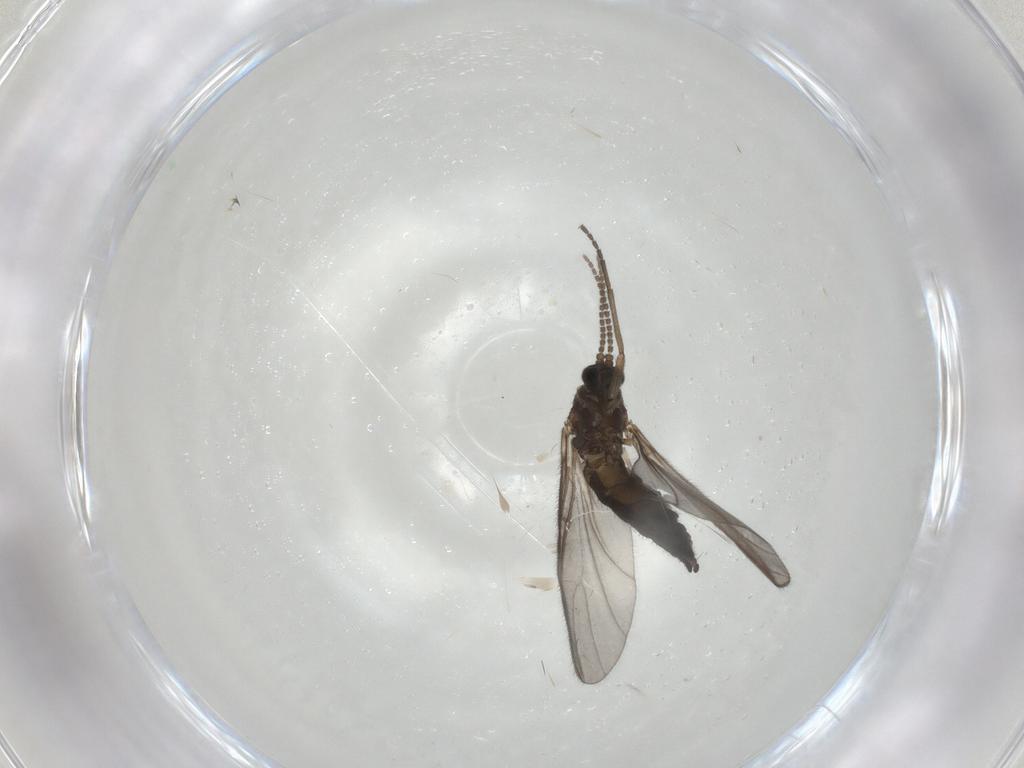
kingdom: Animalia
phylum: Arthropoda
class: Insecta
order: Diptera
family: Sciaridae
